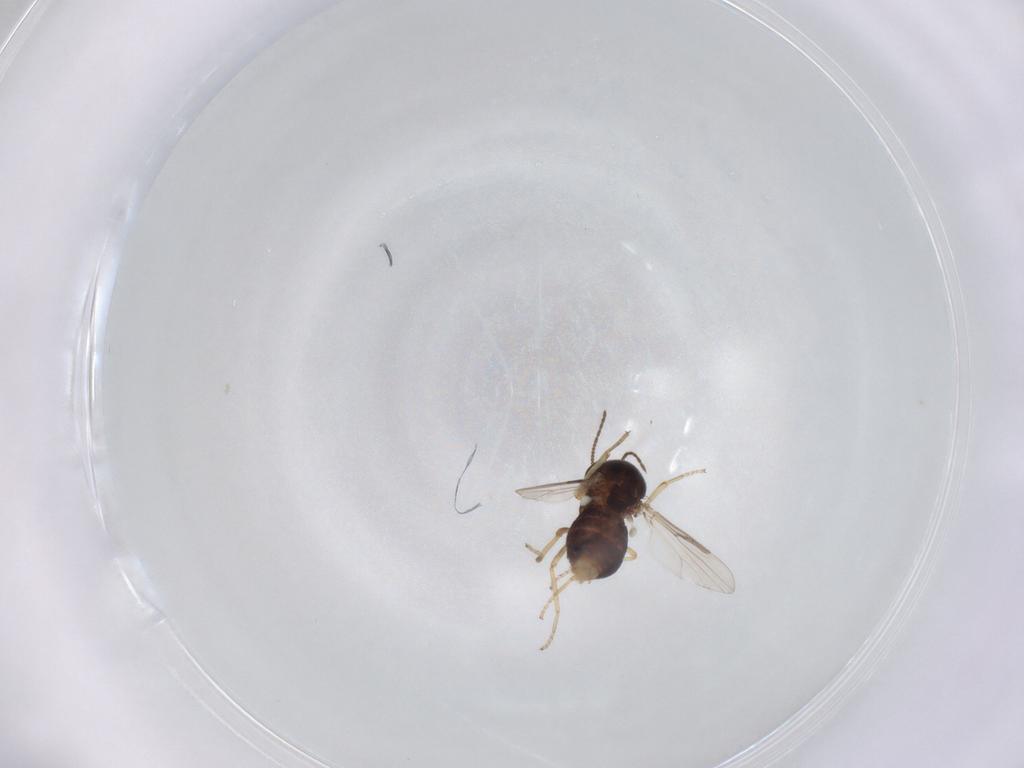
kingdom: Animalia
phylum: Arthropoda
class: Insecta
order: Diptera
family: Ceratopogonidae
